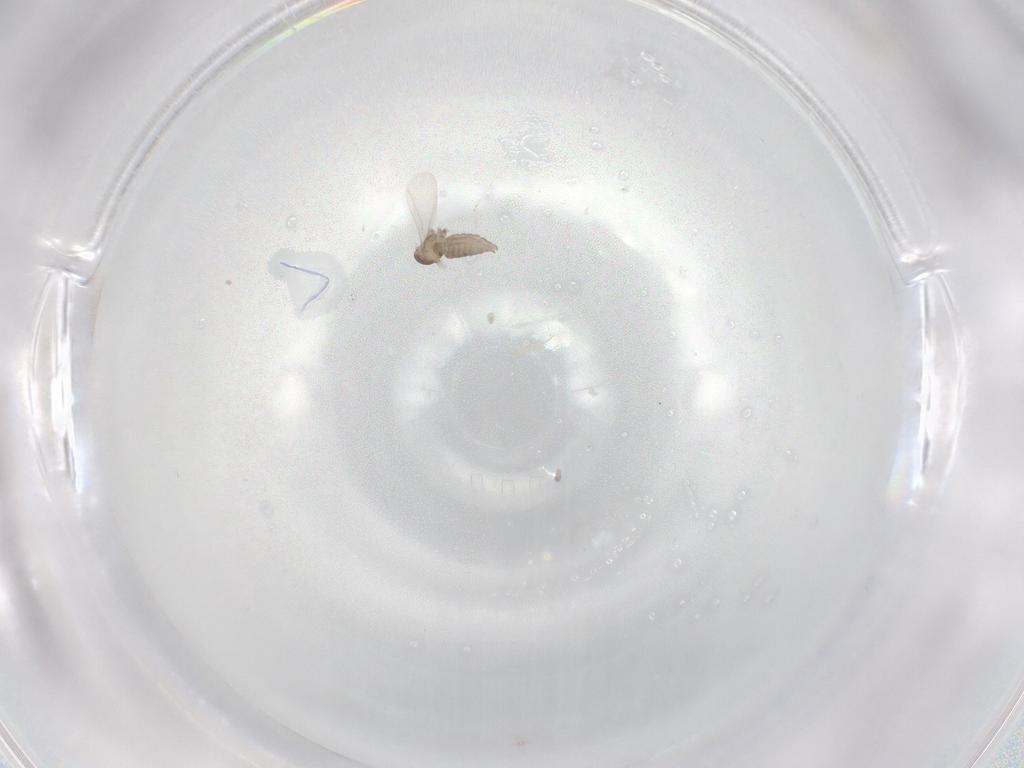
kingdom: Animalia
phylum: Arthropoda
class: Insecta
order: Diptera
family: Sciaridae
